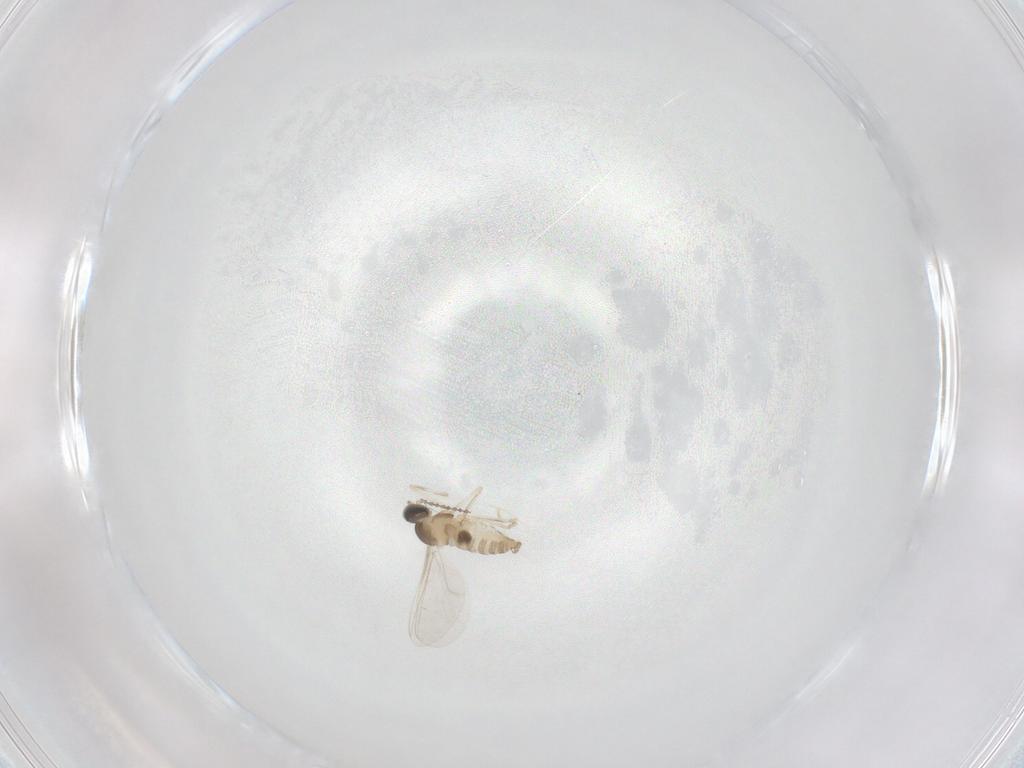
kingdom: Animalia
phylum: Arthropoda
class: Insecta
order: Diptera
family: Cecidomyiidae
